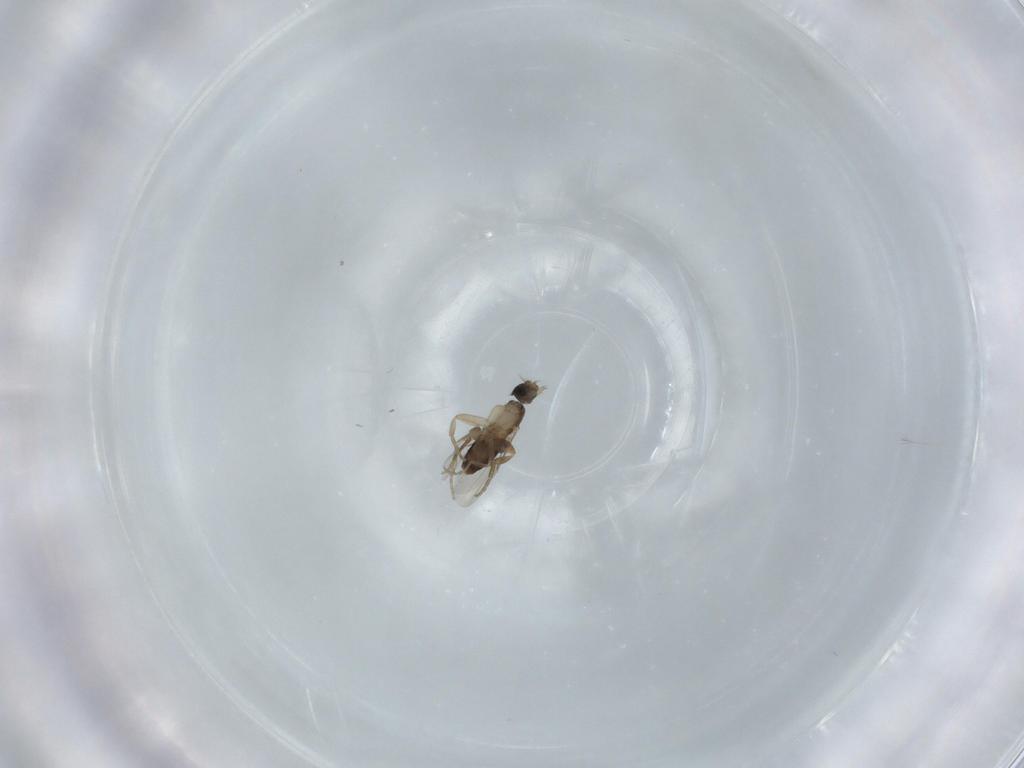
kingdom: Animalia
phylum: Arthropoda
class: Insecta
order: Diptera
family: Phoridae
